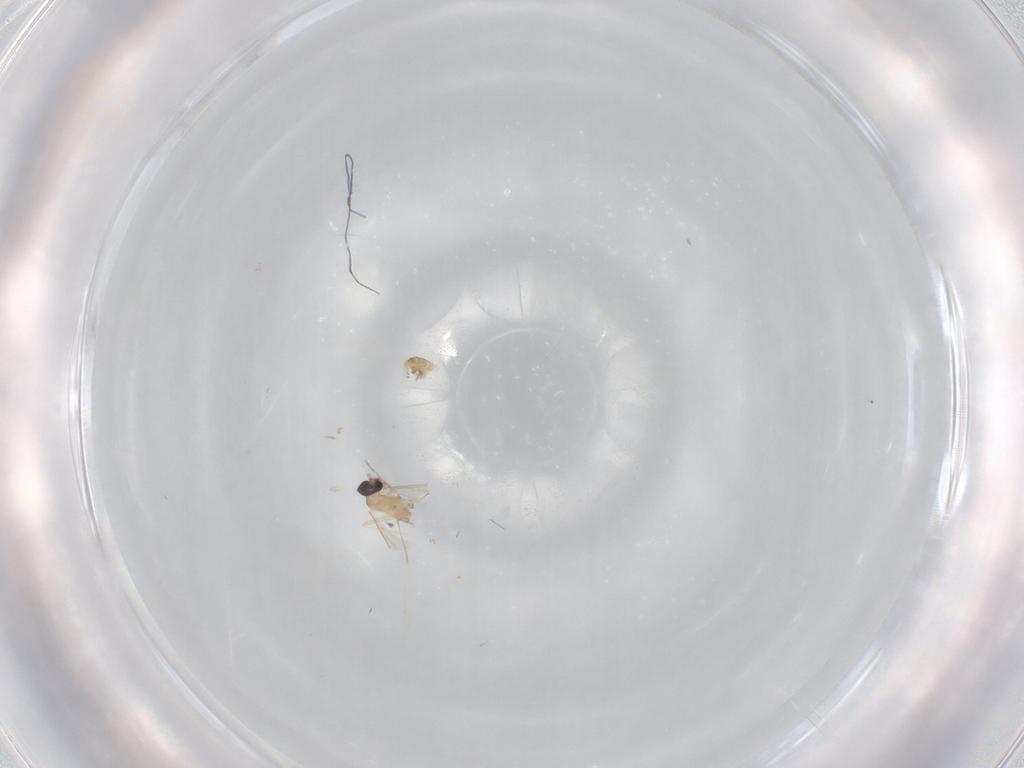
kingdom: Animalia
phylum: Arthropoda
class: Insecta
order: Diptera
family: Cecidomyiidae
